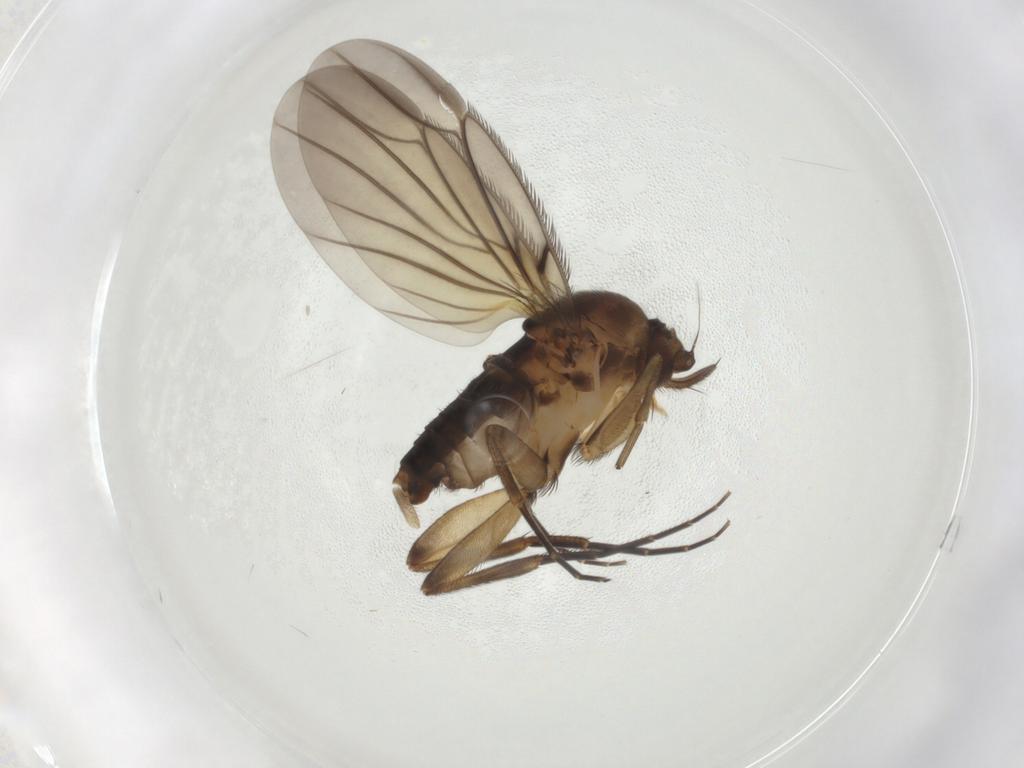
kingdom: Animalia
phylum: Arthropoda
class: Insecta
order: Diptera
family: Phoridae
